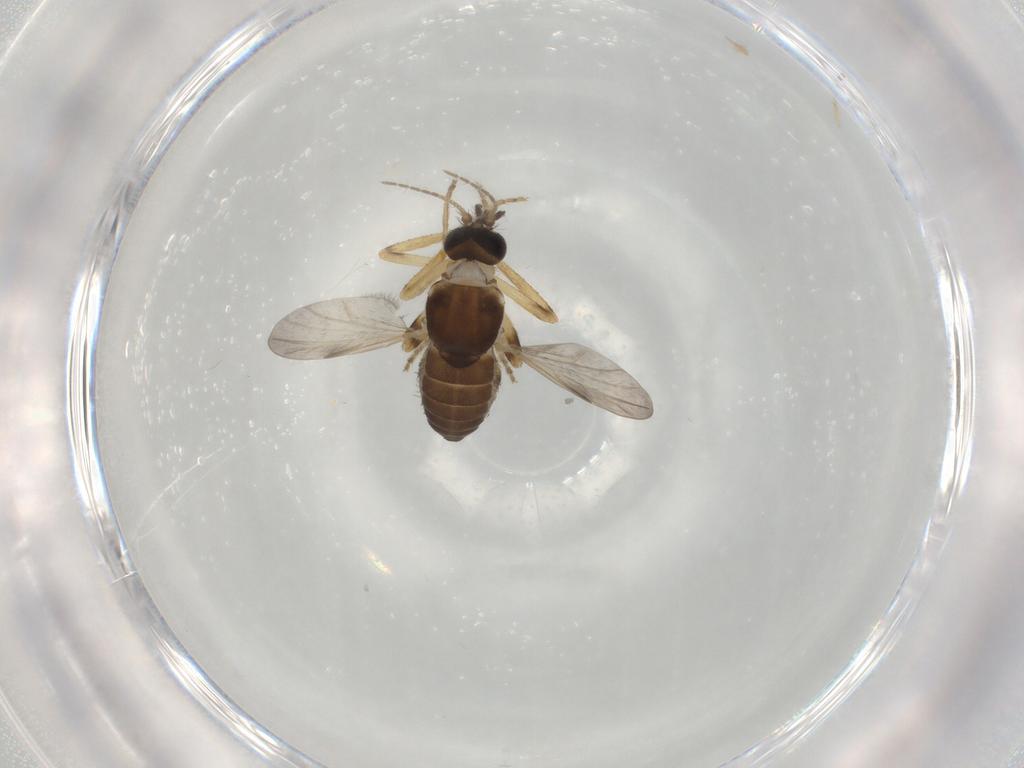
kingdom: Animalia
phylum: Arthropoda
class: Insecta
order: Diptera
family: Ceratopogonidae
